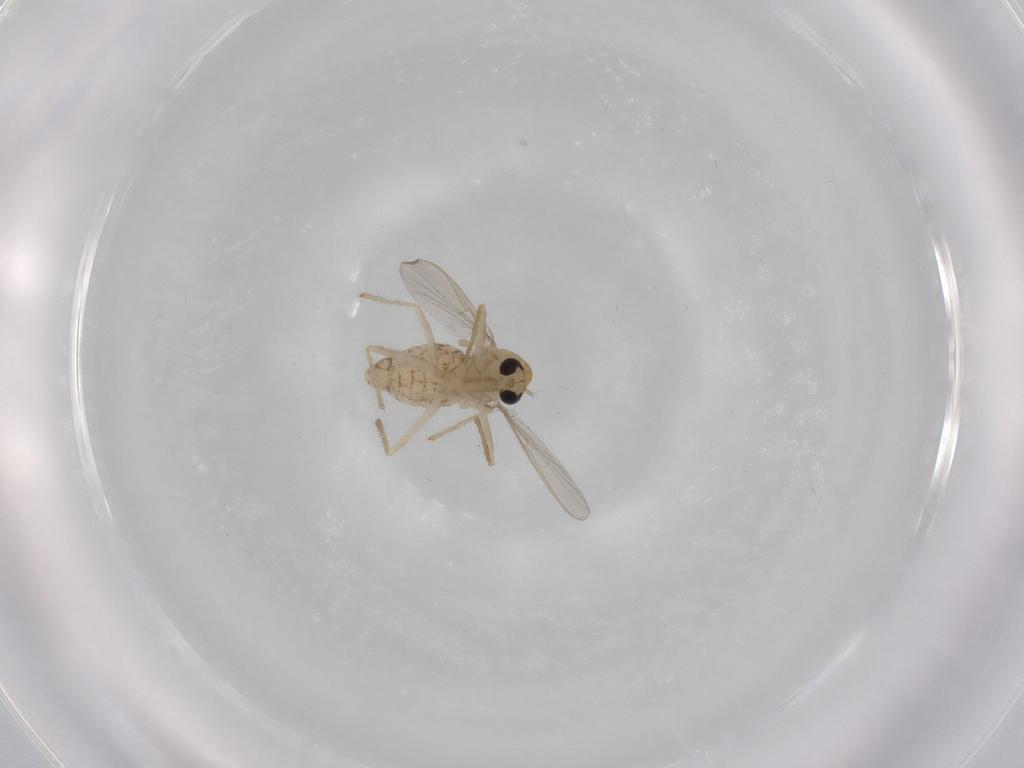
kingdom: Animalia
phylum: Arthropoda
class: Insecta
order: Diptera
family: Chironomidae
